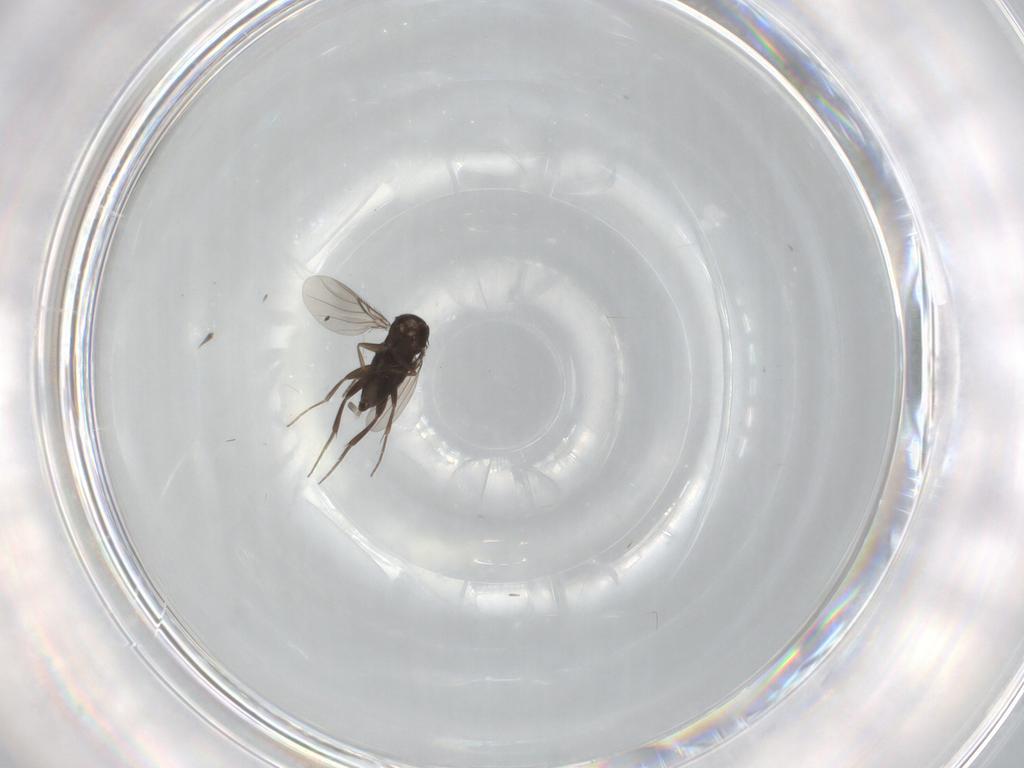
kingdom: Animalia
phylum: Arthropoda
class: Insecta
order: Diptera
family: Phoridae
